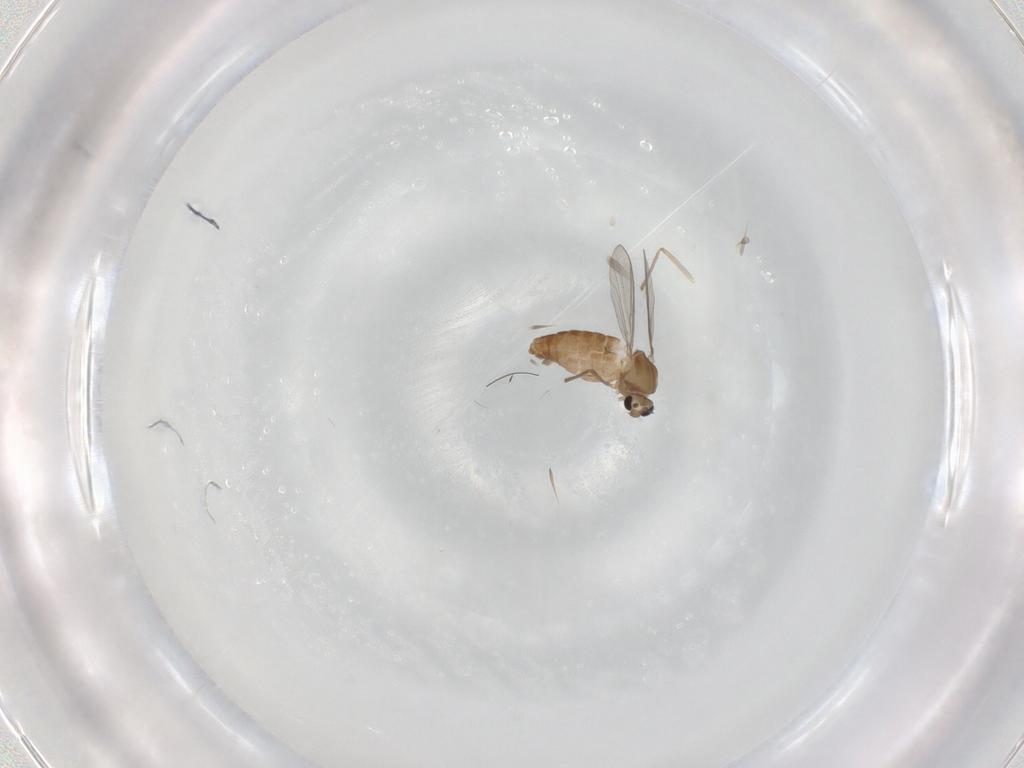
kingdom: Animalia
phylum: Arthropoda
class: Insecta
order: Diptera
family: Chironomidae
